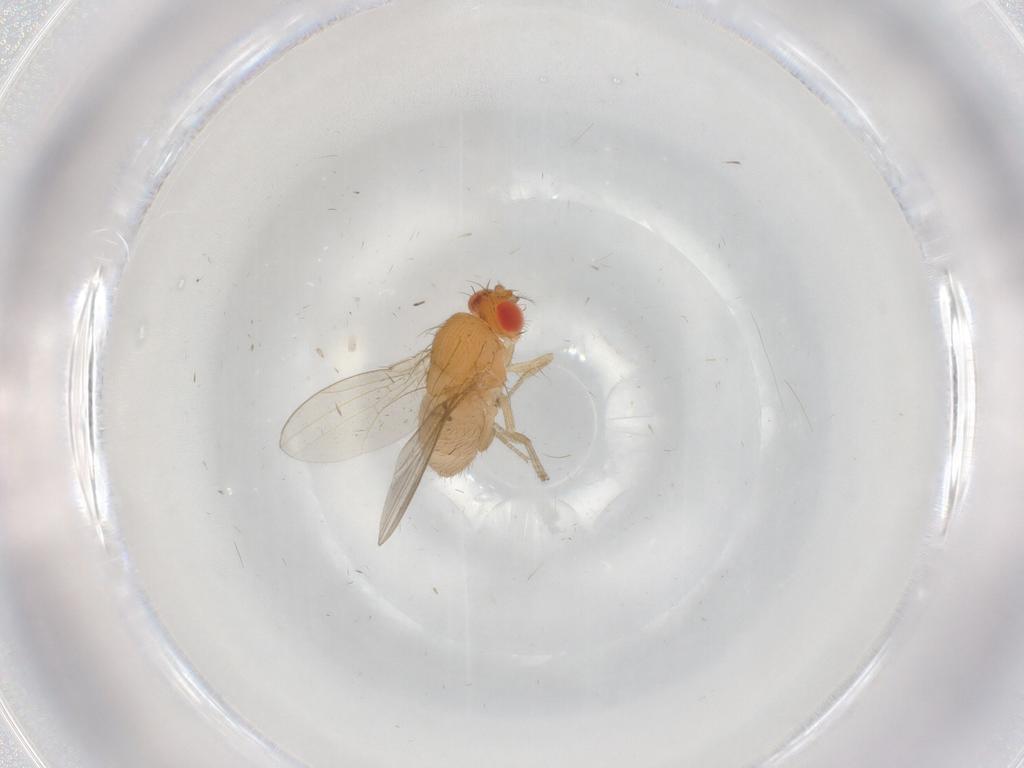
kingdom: Animalia
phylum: Arthropoda
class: Insecta
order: Diptera
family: Drosophilidae
